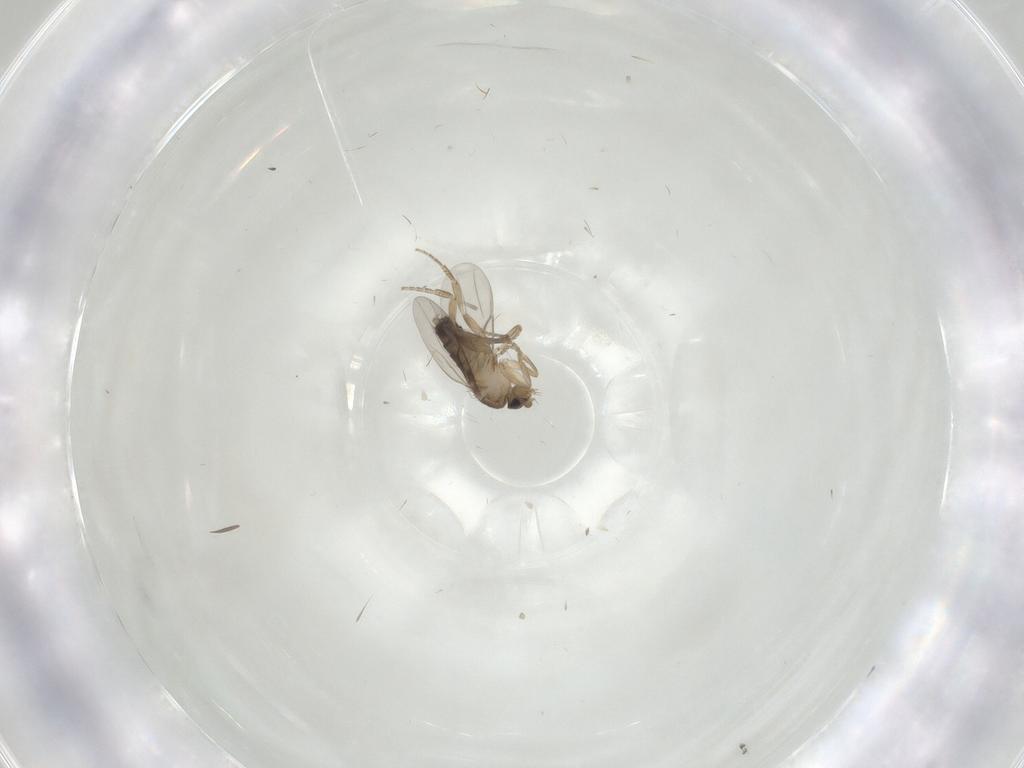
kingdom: Animalia
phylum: Arthropoda
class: Insecta
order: Diptera
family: Psychodidae
